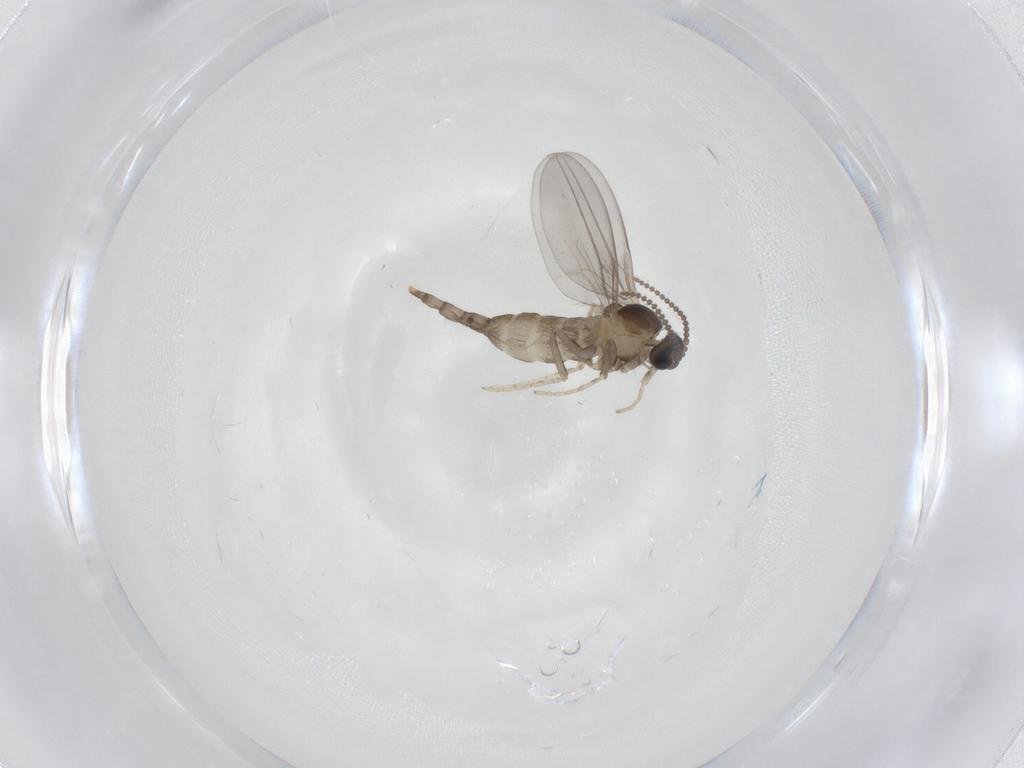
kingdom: Animalia
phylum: Arthropoda
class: Insecta
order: Diptera
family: Cecidomyiidae
